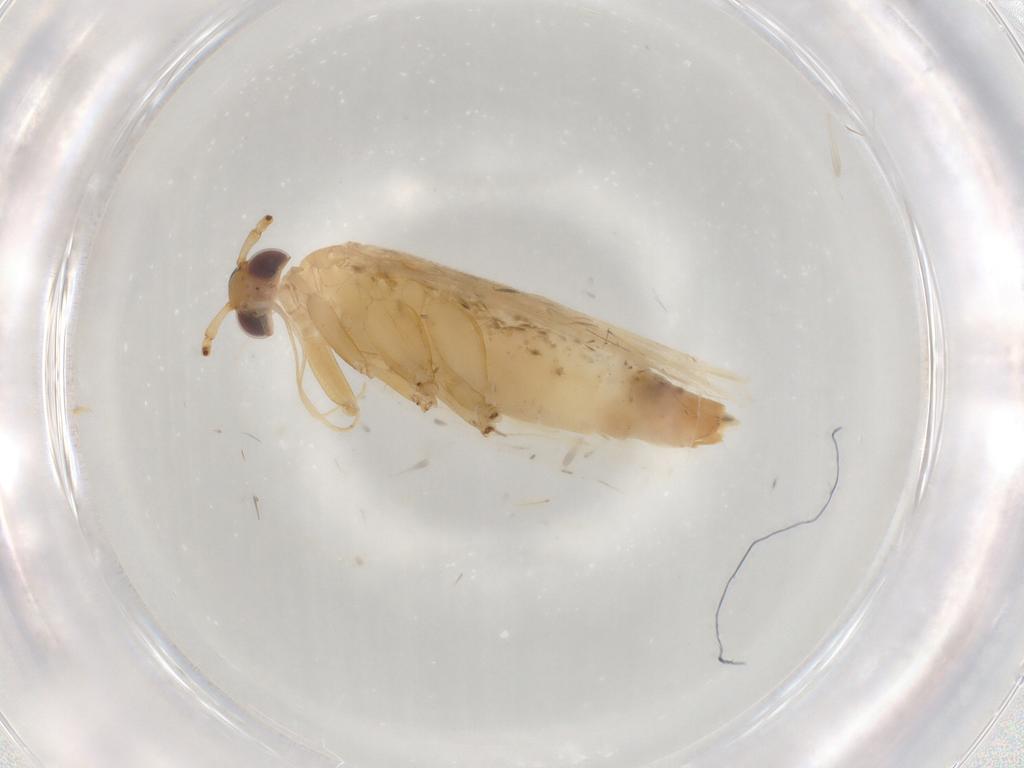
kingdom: Animalia
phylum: Arthropoda
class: Insecta
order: Lepidoptera
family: Lecithoceridae
